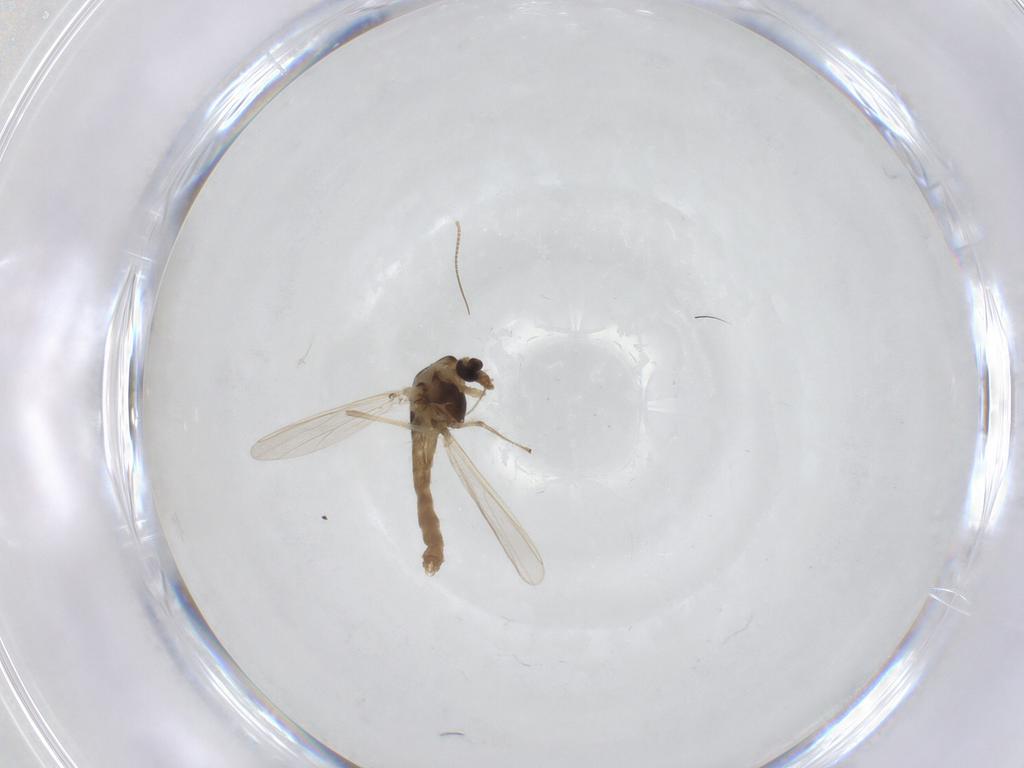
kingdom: Animalia
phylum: Arthropoda
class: Insecta
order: Diptera
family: Chironomidae
